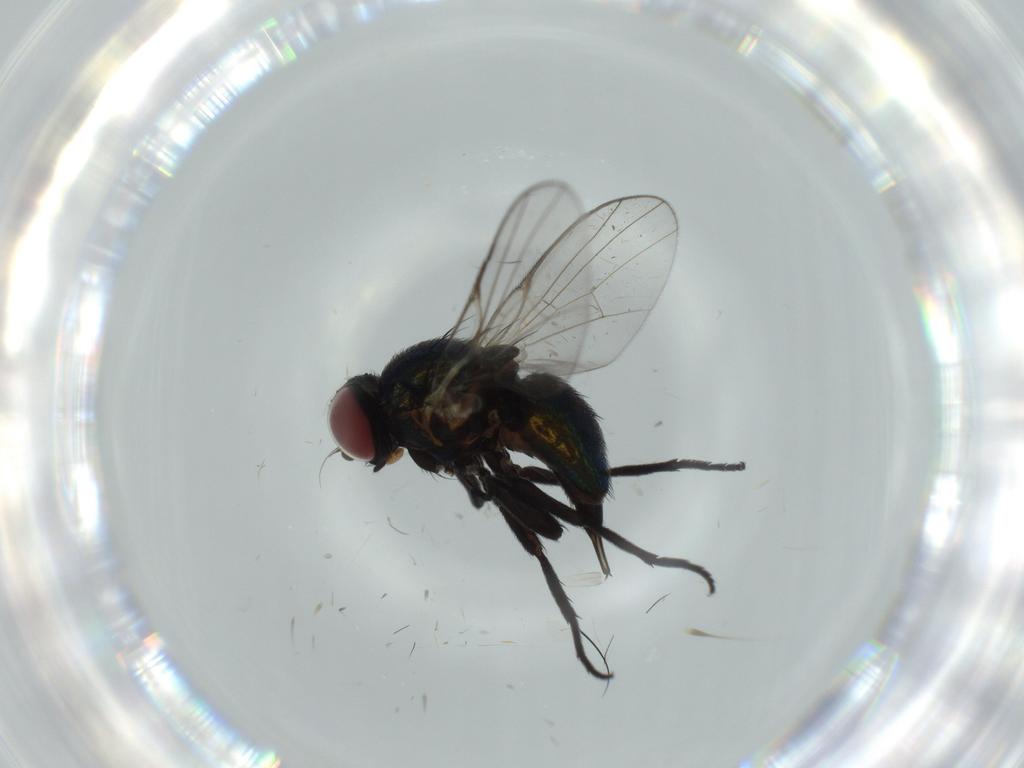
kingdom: Animalia
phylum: Arthropoda
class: Insecta
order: Diptera
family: Agromyzidae
